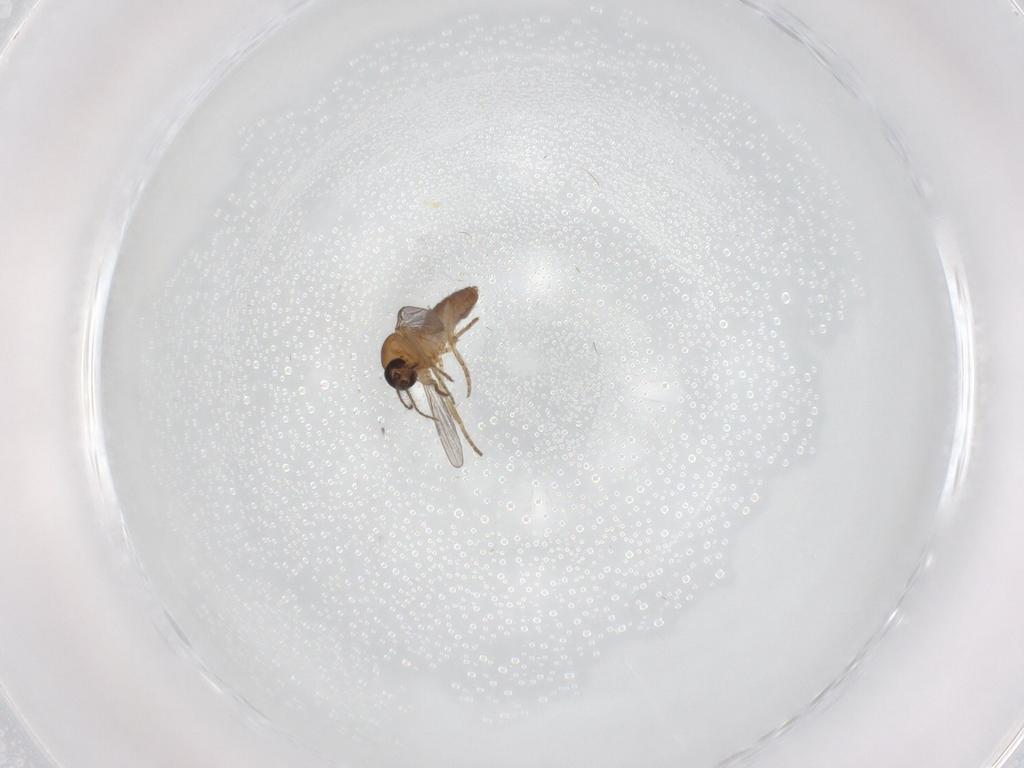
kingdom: Animalia
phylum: Arthropoda
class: Insecta
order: Diptera
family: Ceratopogonidae
